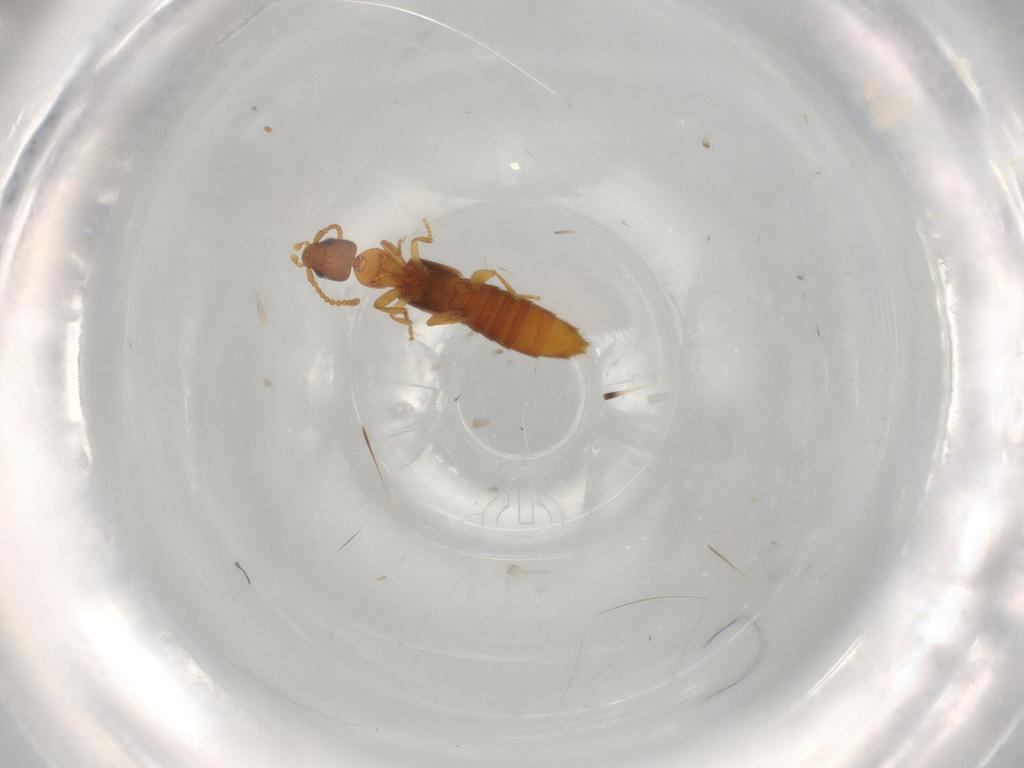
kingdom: Animalia
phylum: Arthropoda
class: Insecta
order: Coleoptera
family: Staphylinidae
